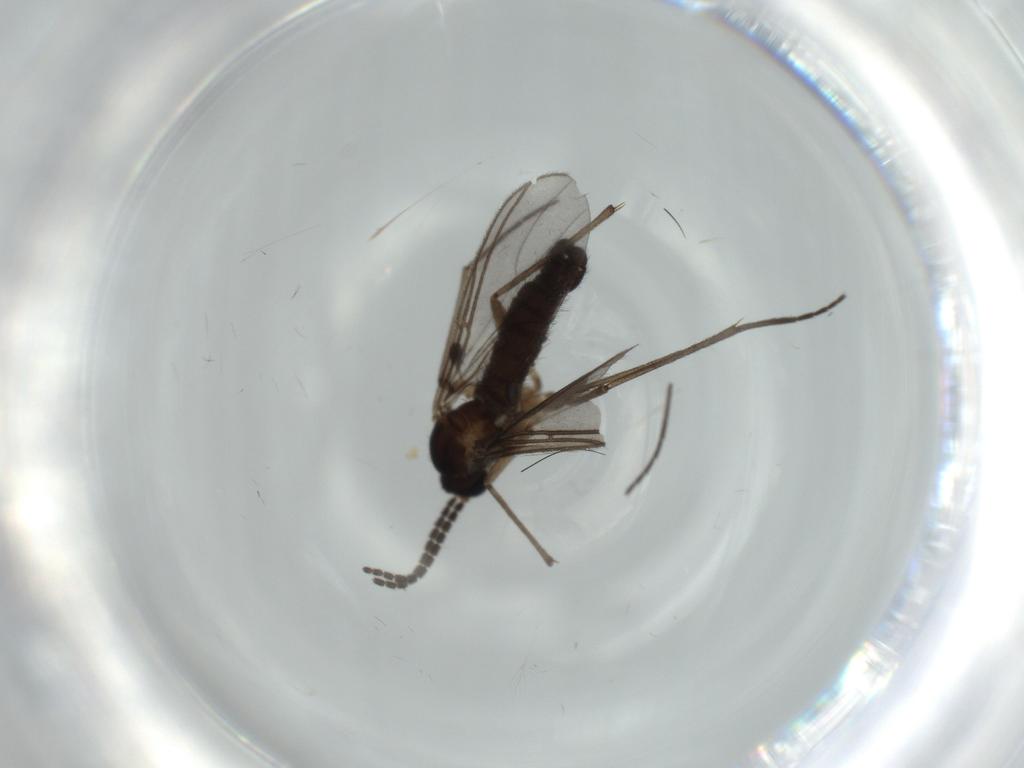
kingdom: Animalia
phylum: Arthropoda
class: Insecta
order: Diptera
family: Sciaridae
